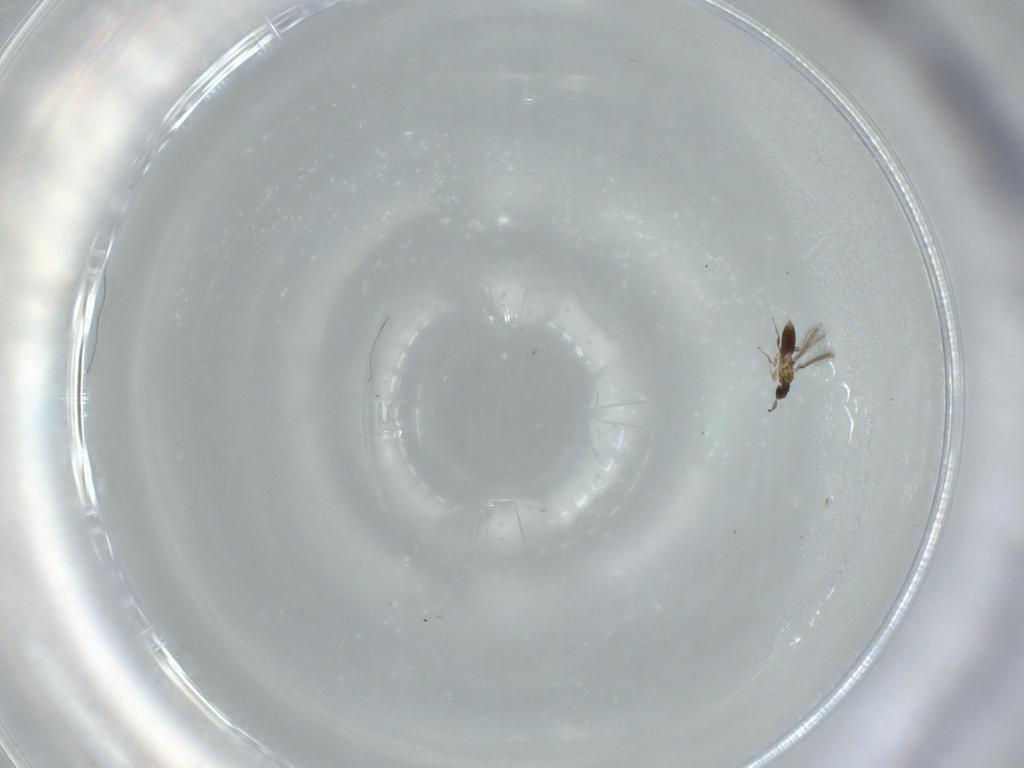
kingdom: Animalia
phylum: Arthropoda
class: Insecta
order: Hymenoptera
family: Mymaridae
